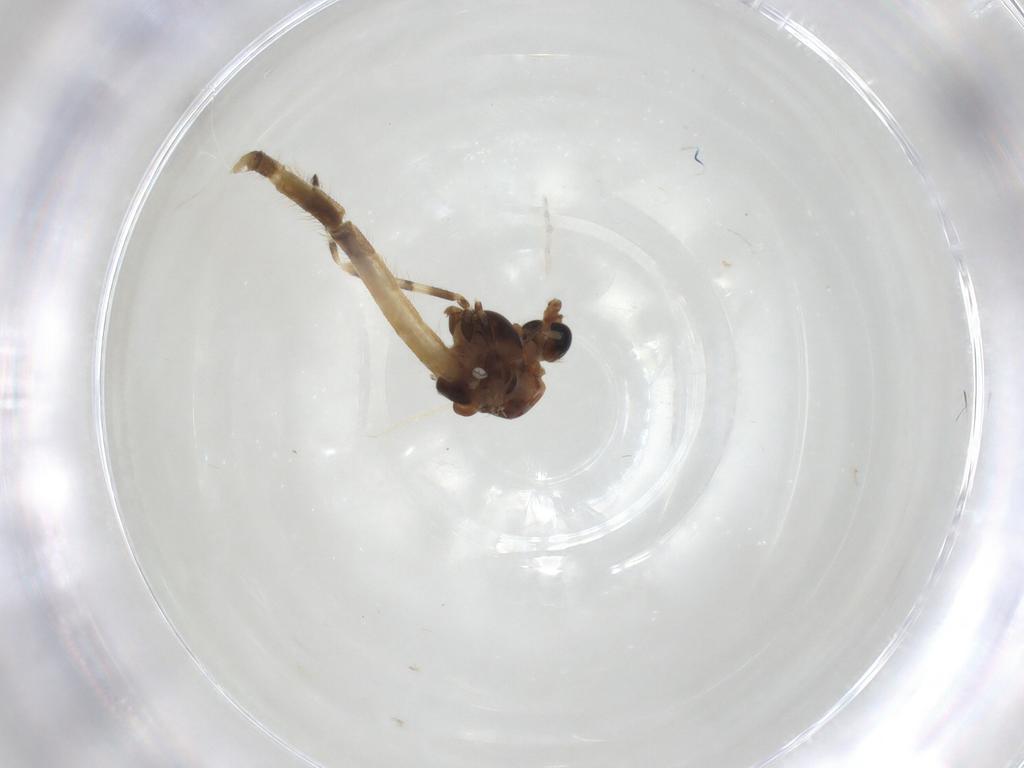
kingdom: Animalia
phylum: Arthropoda
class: Insecta
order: Diptera
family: Chironomidae
